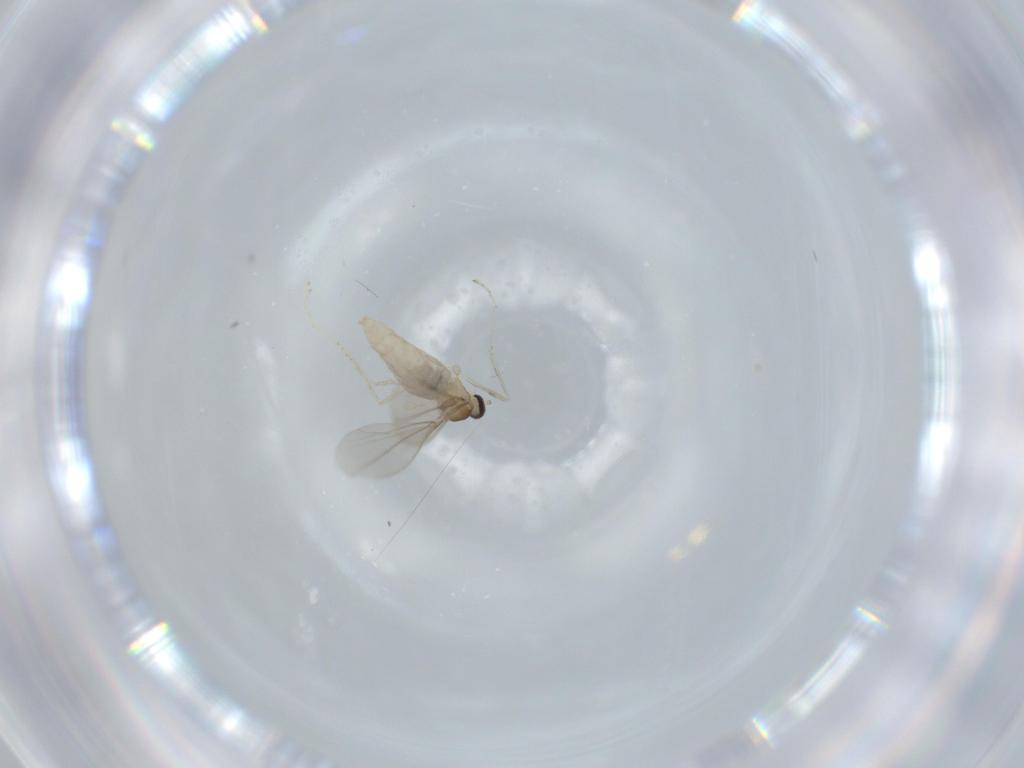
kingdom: Animalia
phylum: Arthropoda
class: Insecta
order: Diptera
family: Cecidomyiidae
